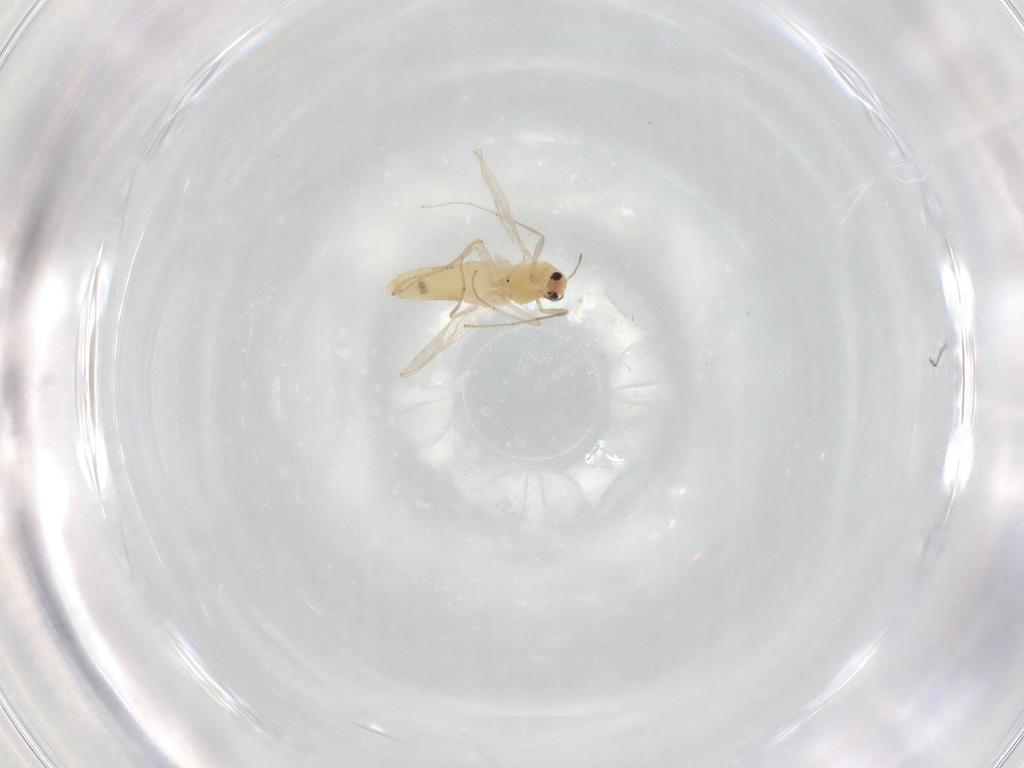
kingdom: Animalia
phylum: Arthropoda
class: Insecta
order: Diptera
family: Chironomidae
